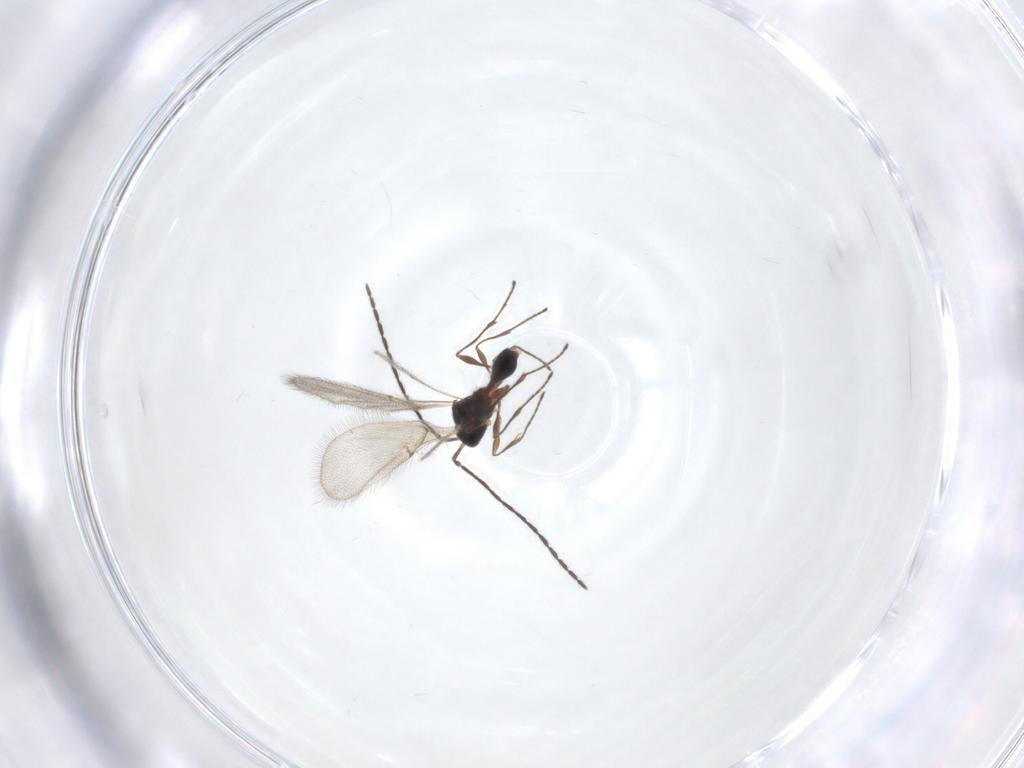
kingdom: Animalia
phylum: Arthropoda
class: Insecta
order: Hymenoptera
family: Diapriidae
